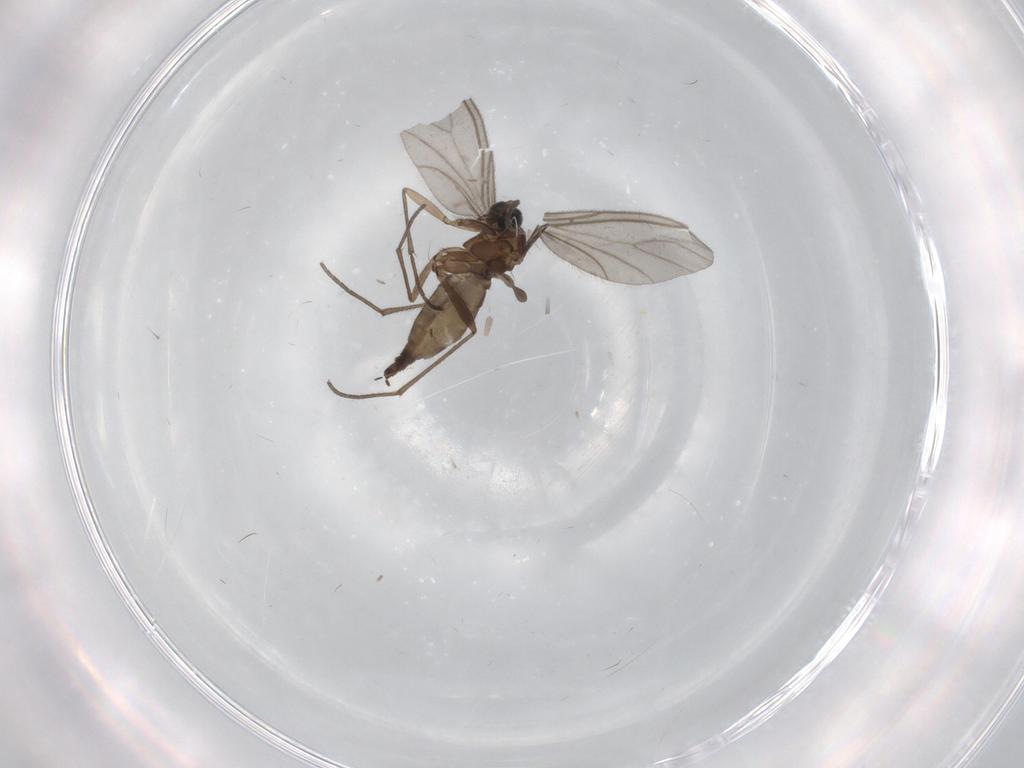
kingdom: Animalia
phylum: Arthropoda
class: Insecta
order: Diptera
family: Sciaridae
